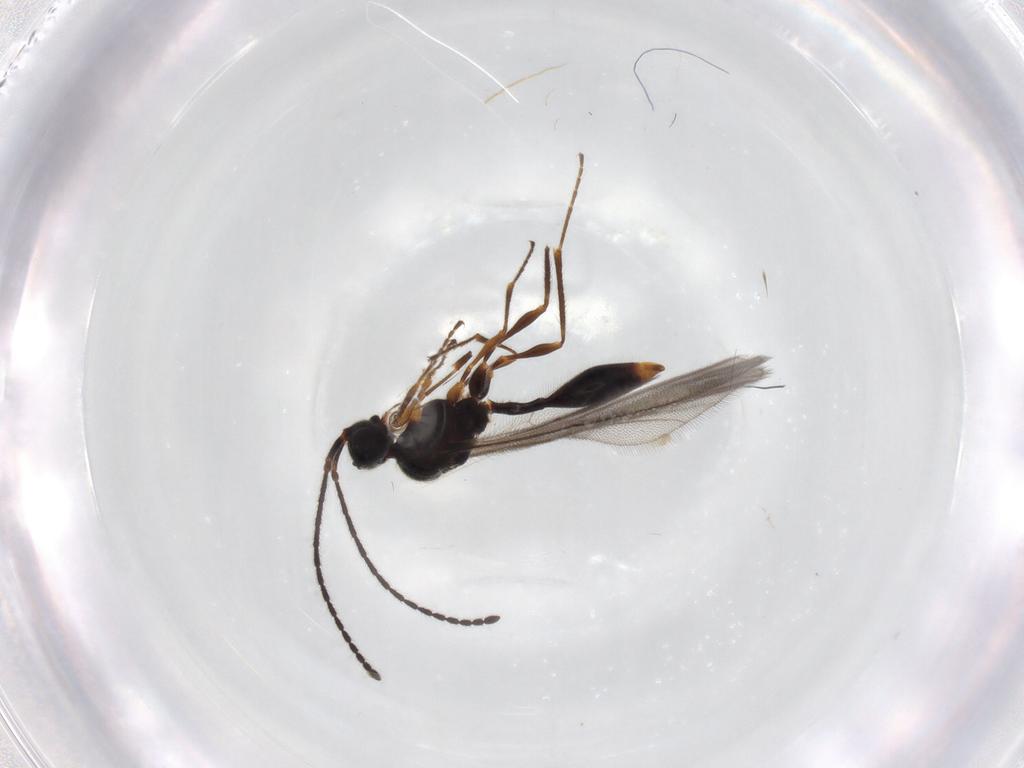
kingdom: Animalia
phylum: Arthropoda
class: Insecta
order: Hymenoptera
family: Diapriidae
